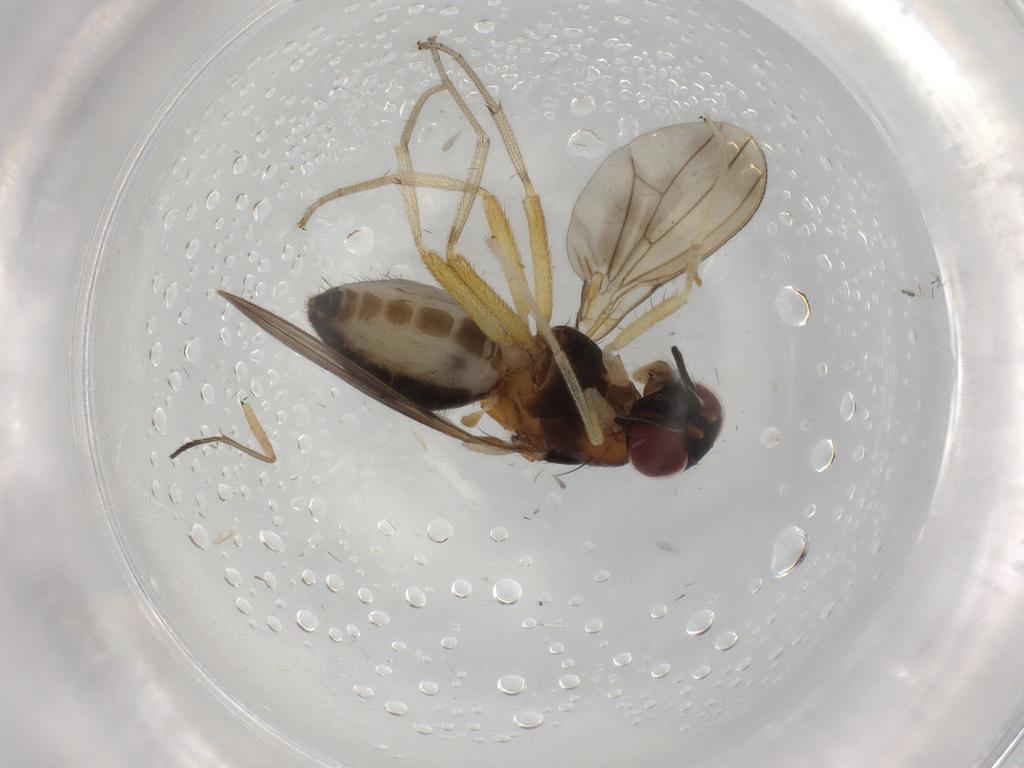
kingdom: Animalia
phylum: Arthropoda
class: Insecta
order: Diptera
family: Lauxaniidae
